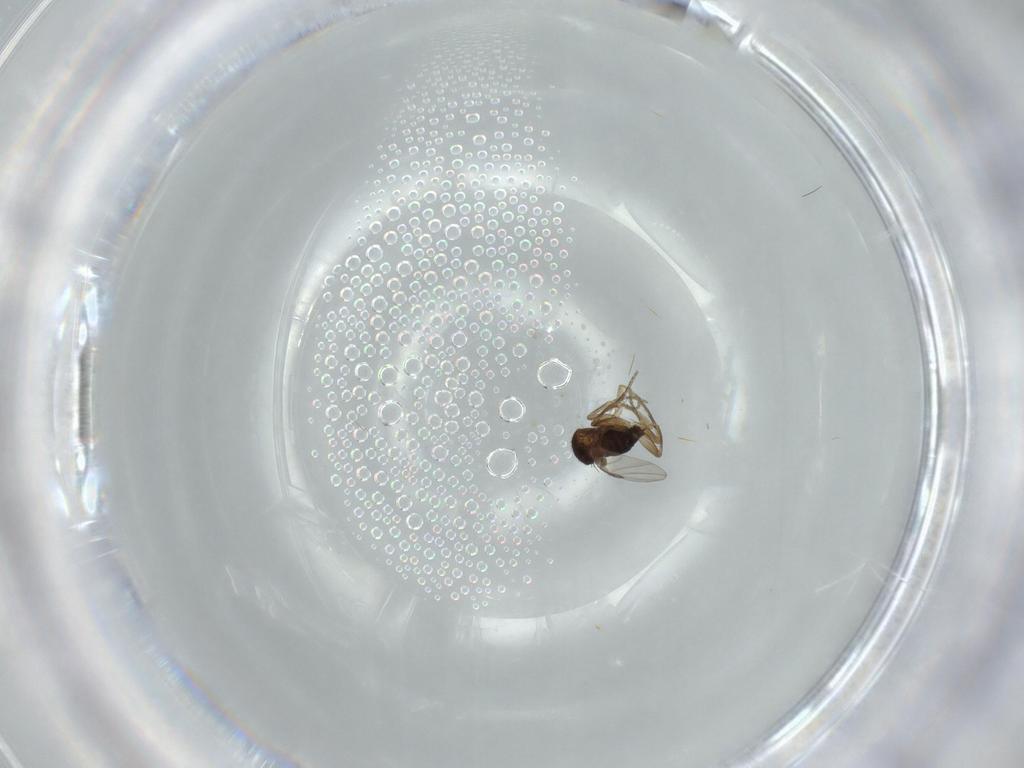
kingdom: Animalia
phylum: Arthropoda
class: Insecta
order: Diptera
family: Phoridae
